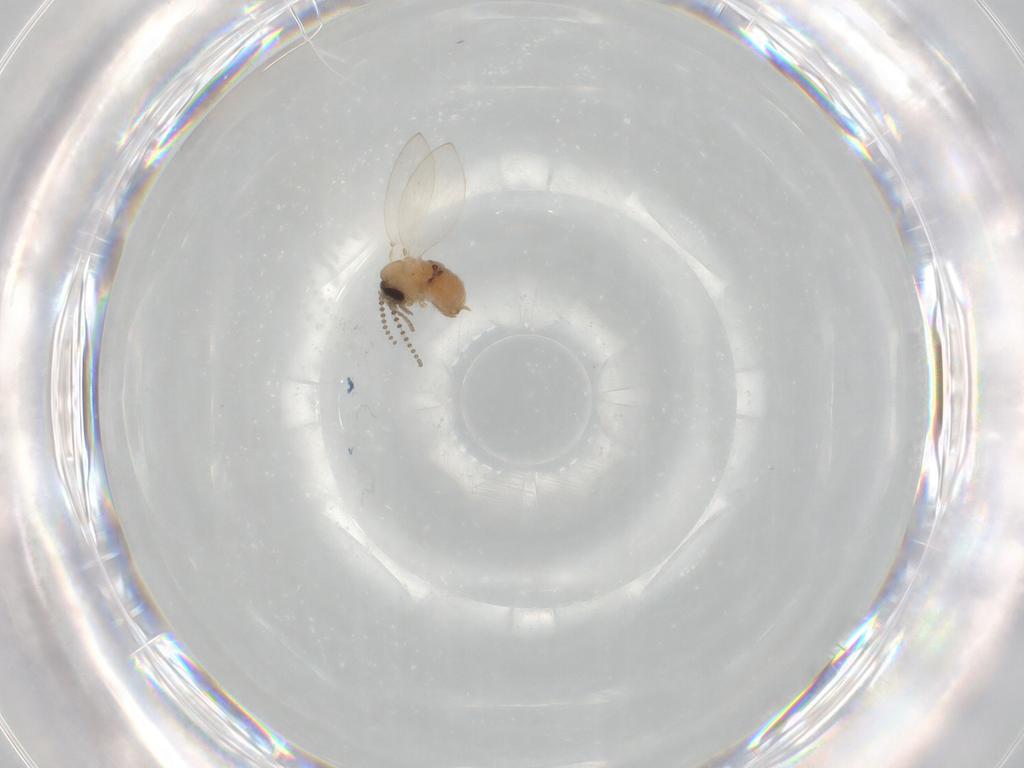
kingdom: Animalia
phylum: Arthropoda
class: Insecta
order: Diptera
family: Psychodidae
